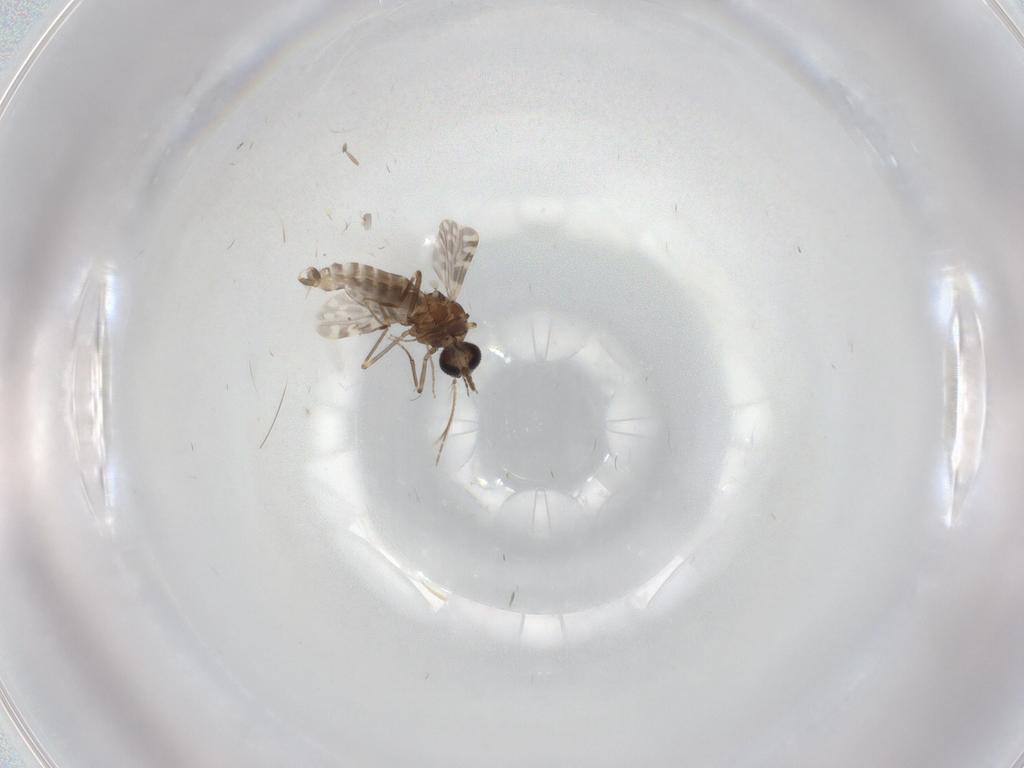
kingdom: Animalia
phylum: Arthropoda
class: Insecta
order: Diptera
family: Ceratopogonidae
